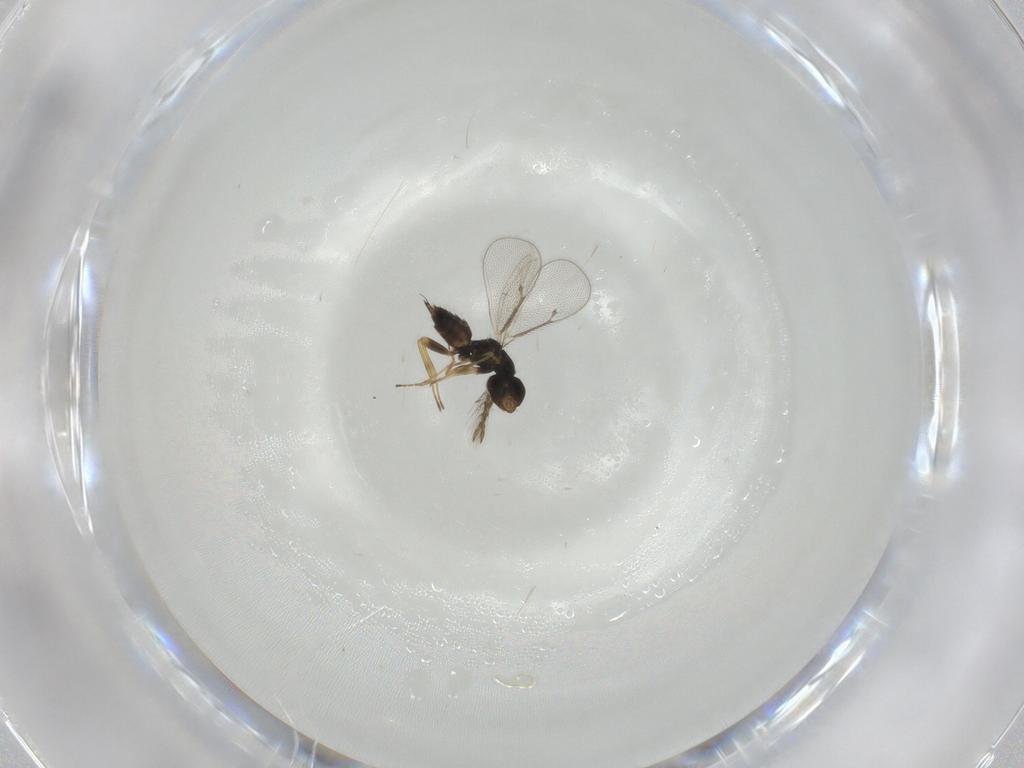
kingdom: Animalia
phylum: Arthropoda
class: Insecta
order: Hymenoptera
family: Eulophidae
